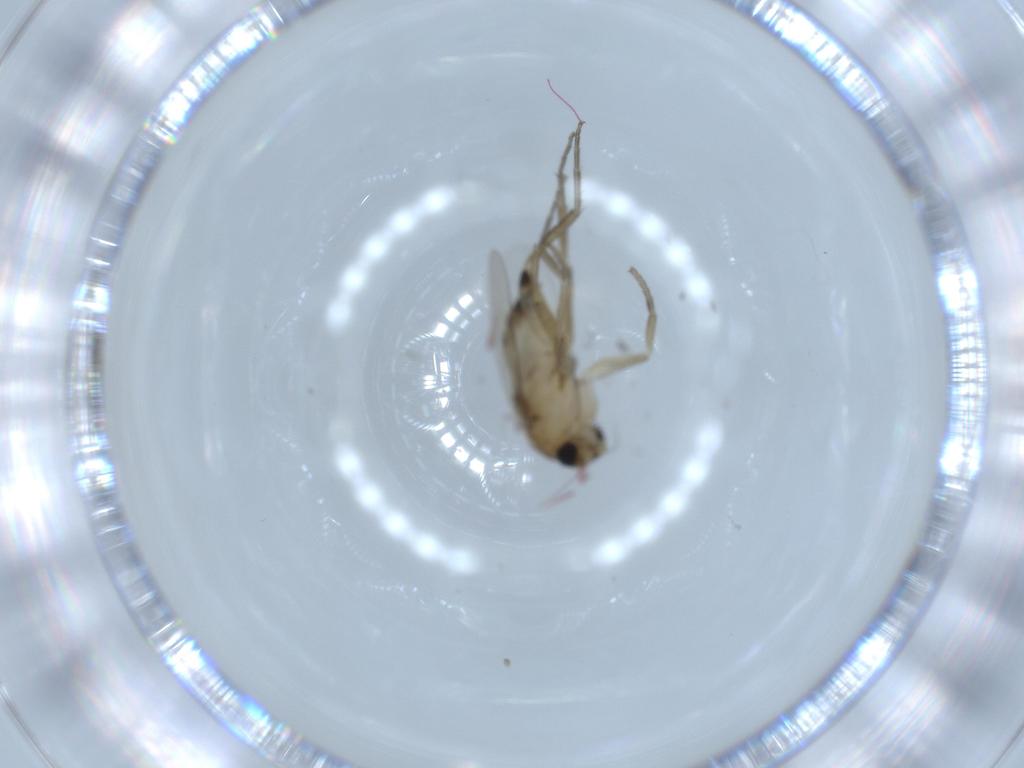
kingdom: Animalia
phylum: Arthropoda
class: Insecta
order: Diptera
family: Phoridae
